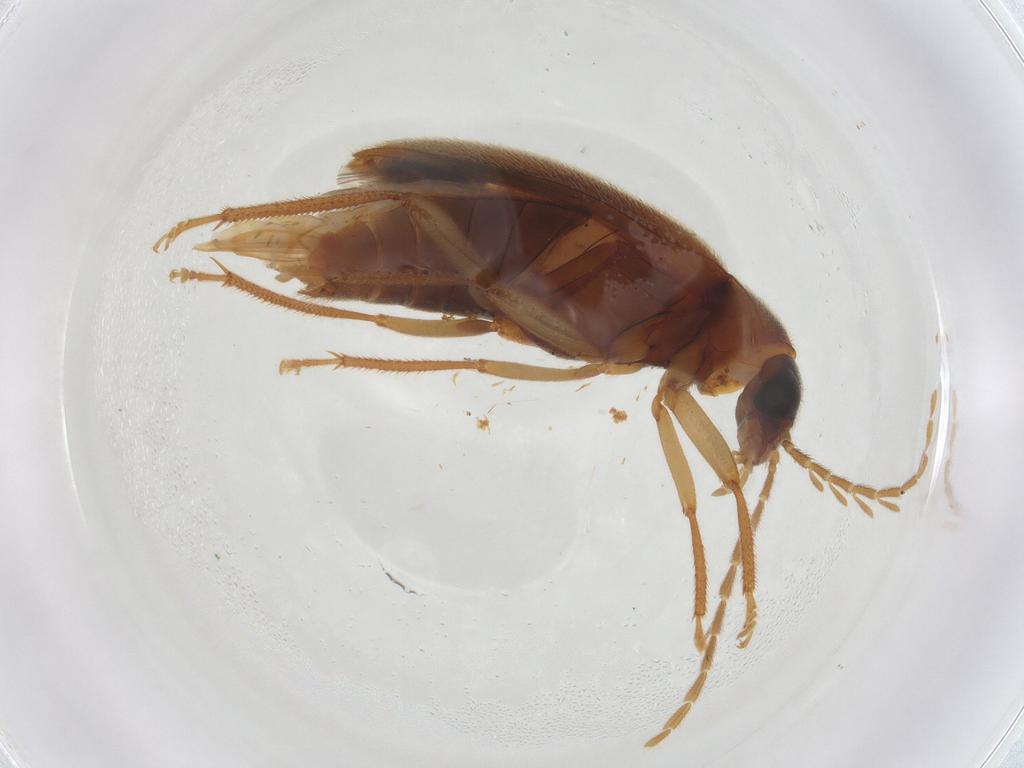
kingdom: Animalia
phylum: Arthropoda
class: Insecta
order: Coleoptera
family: Ptilodactylidae
